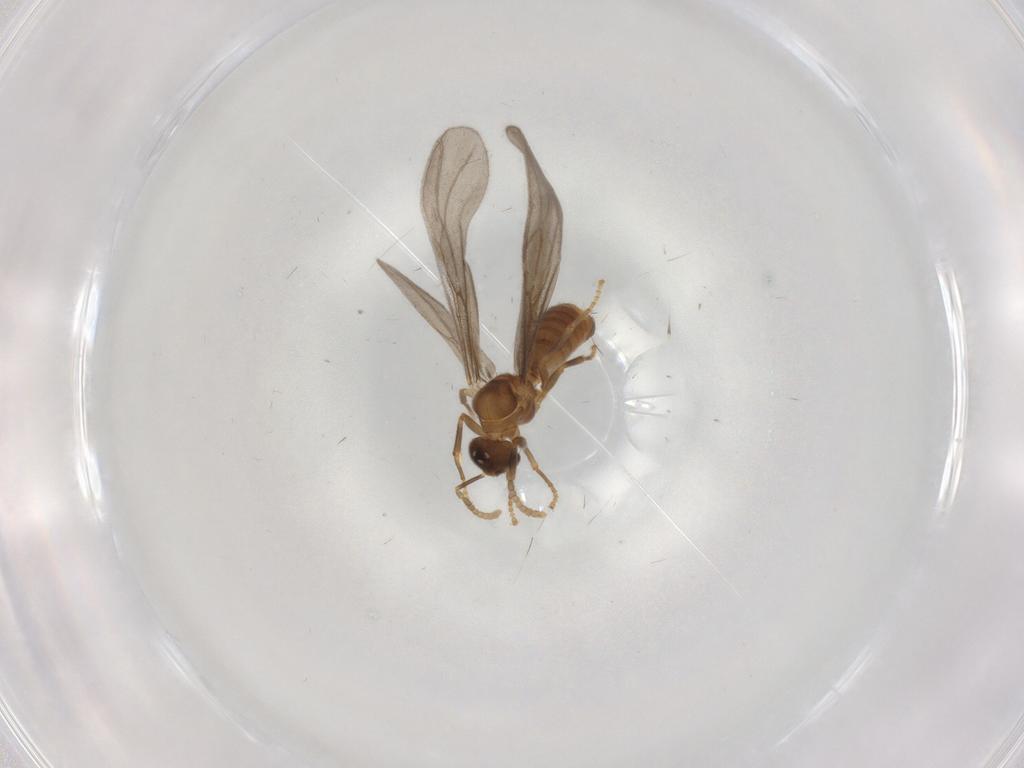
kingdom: Animalia
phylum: Arthropoda
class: Insecta
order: Hymenoptera
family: Formicidae
